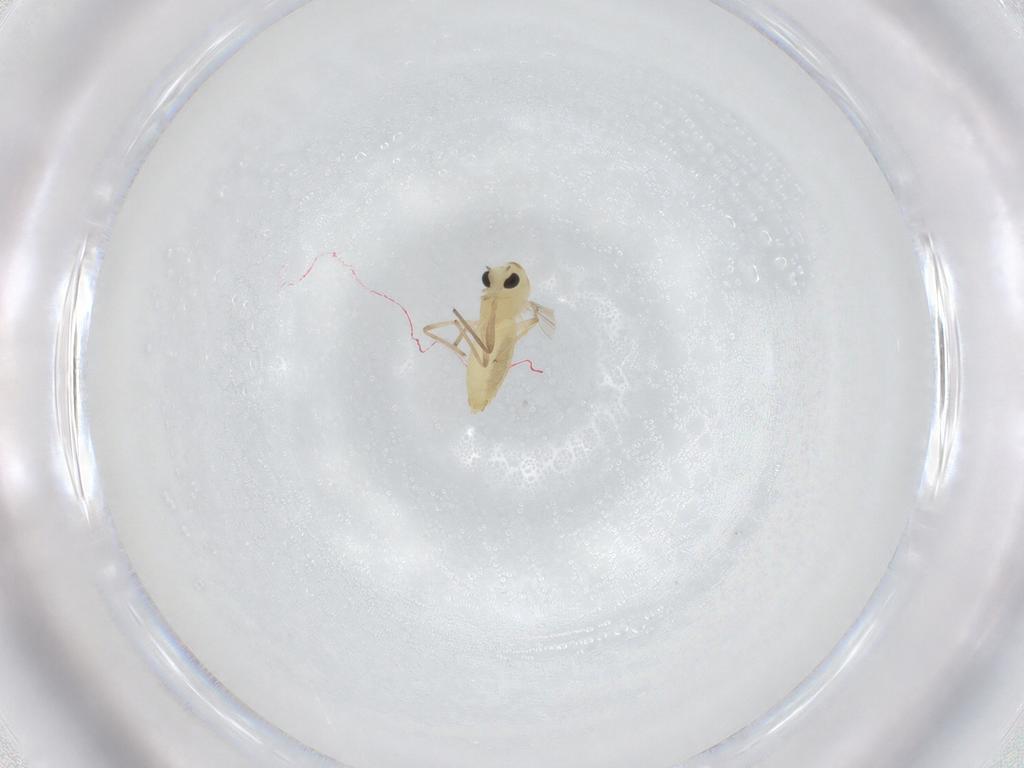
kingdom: Animalia
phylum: Arthropoda
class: Insecta
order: Diptera
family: Chironomidae
